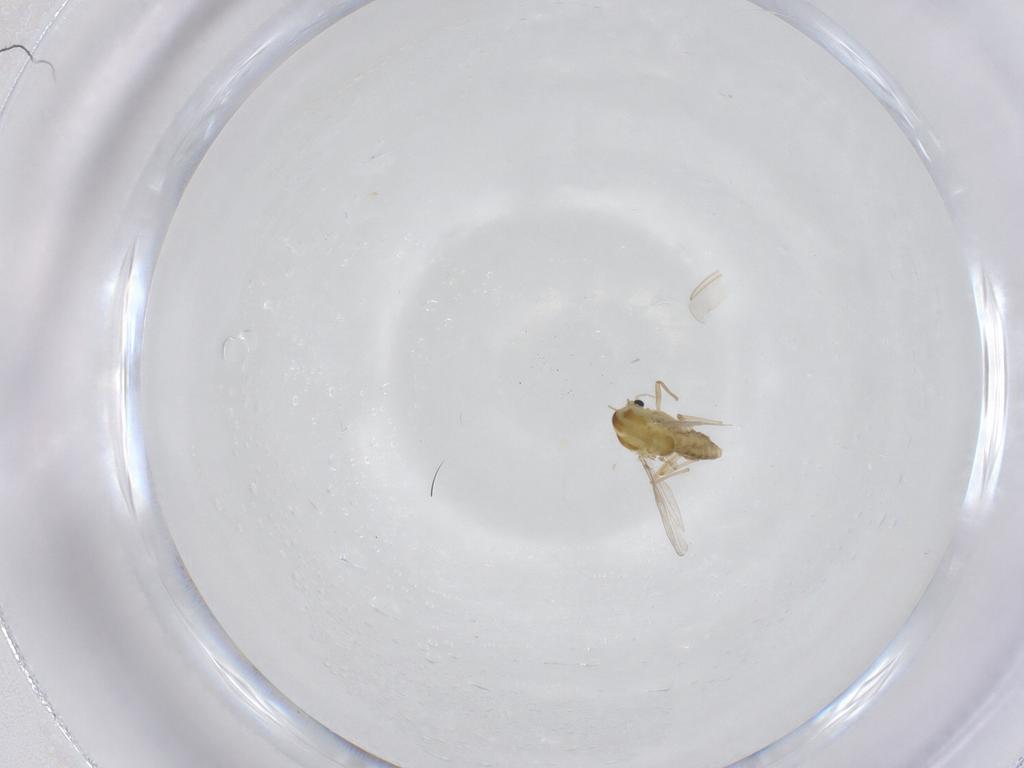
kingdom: Animalia
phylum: Arthropoda
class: Insecta
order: Diptera
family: Chironomidae
